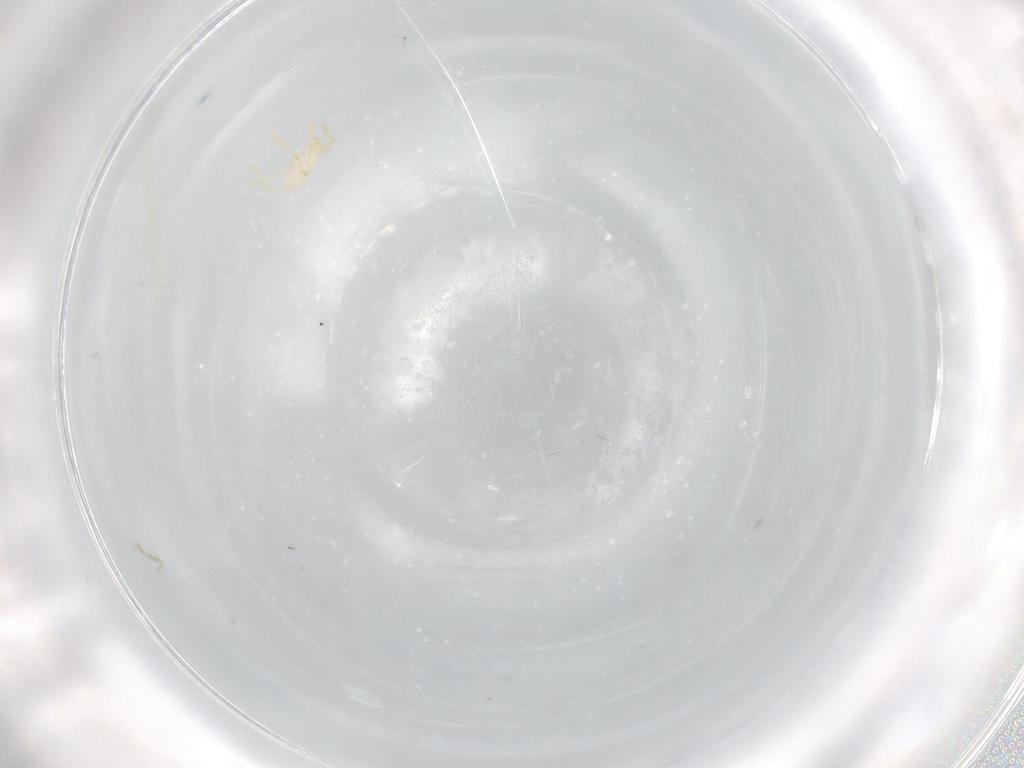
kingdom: Animalia
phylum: Arthropoda
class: Arachnida
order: Trombidiformes
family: Erythraeidae
